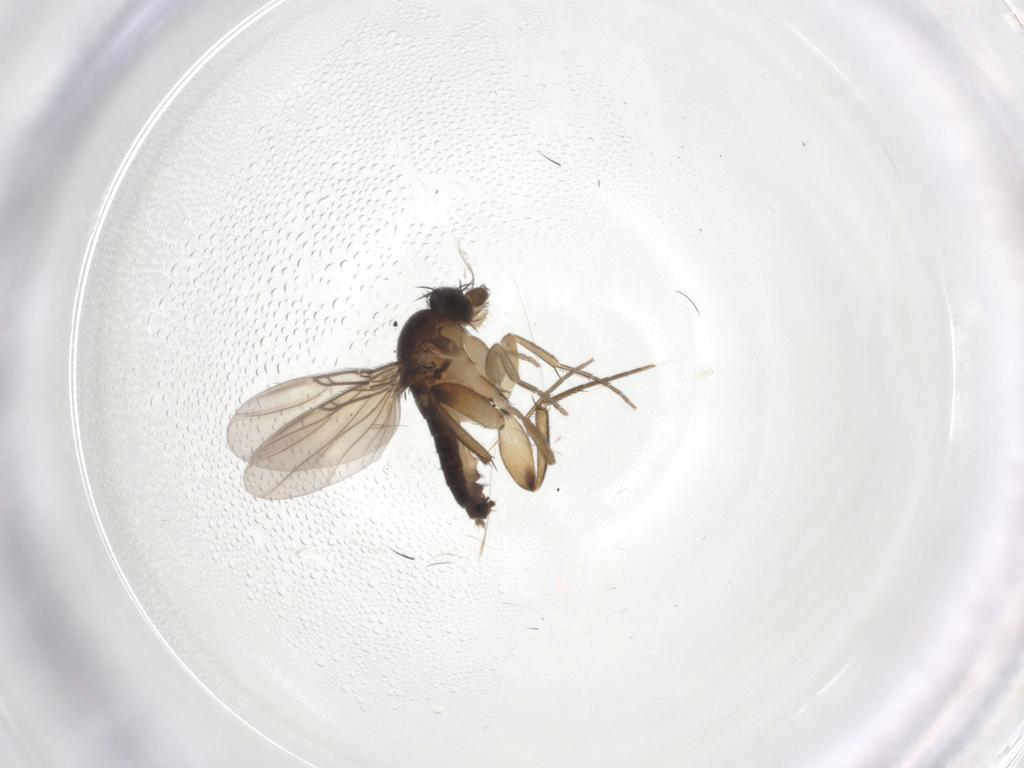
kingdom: Animalia
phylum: Arthropoda
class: Insecta
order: Diptera
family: Phoridae
